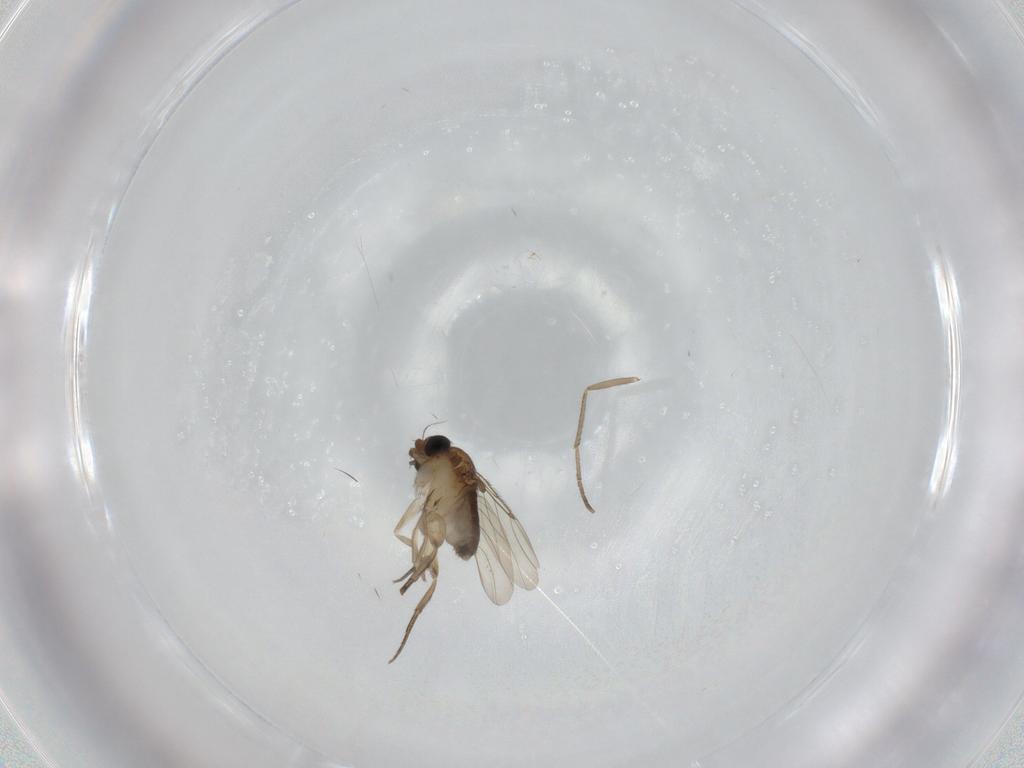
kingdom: Animalia
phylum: Arthropoda
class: Insecta
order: Diptera
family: Phoridae
